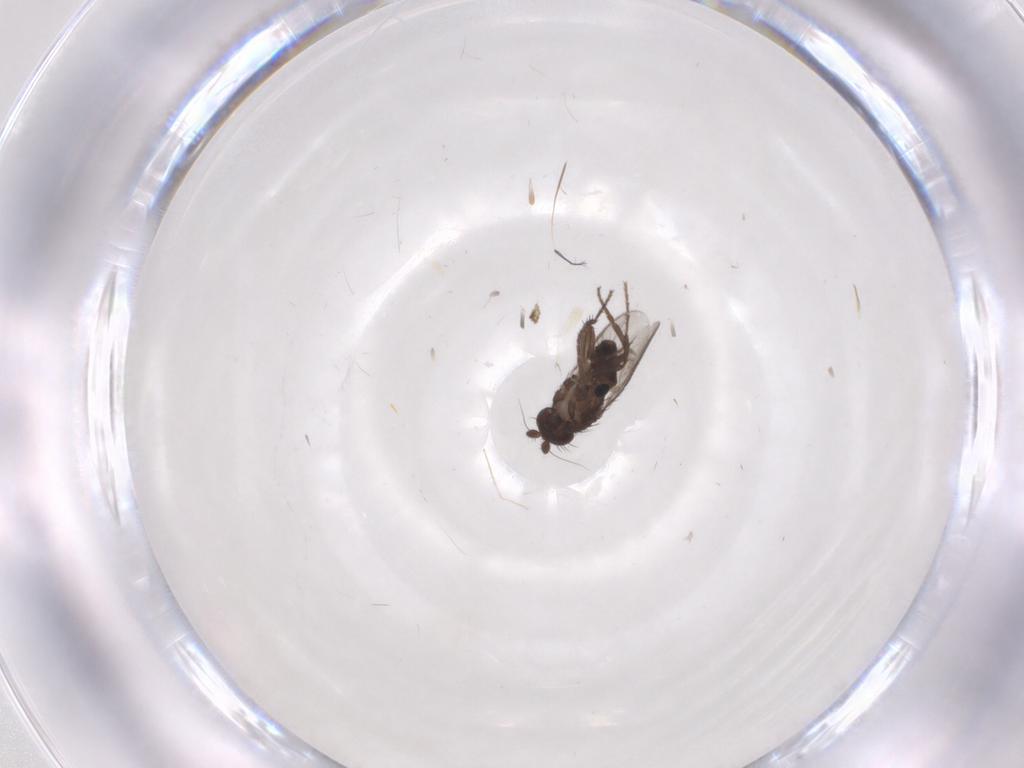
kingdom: Animalia
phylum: Arthropoda
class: Insecta
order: Diptera
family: Sphaeroceridae
